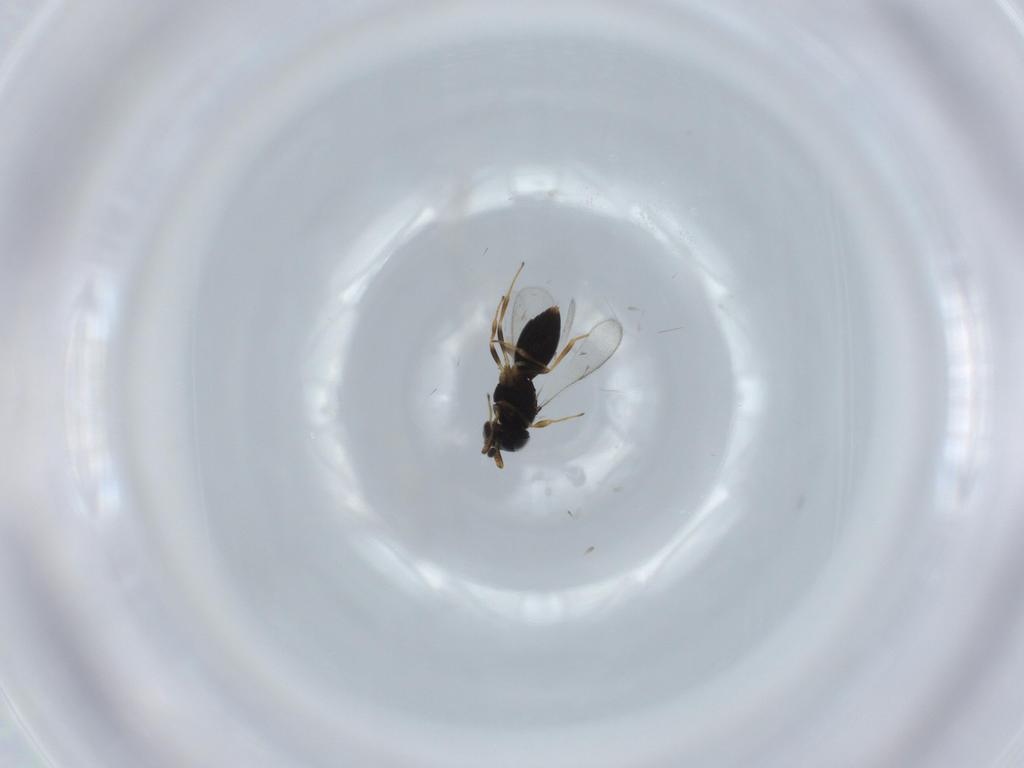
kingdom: Animalia
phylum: Arthropoda
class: Insecta
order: Hymenoptera
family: Scelionidae
